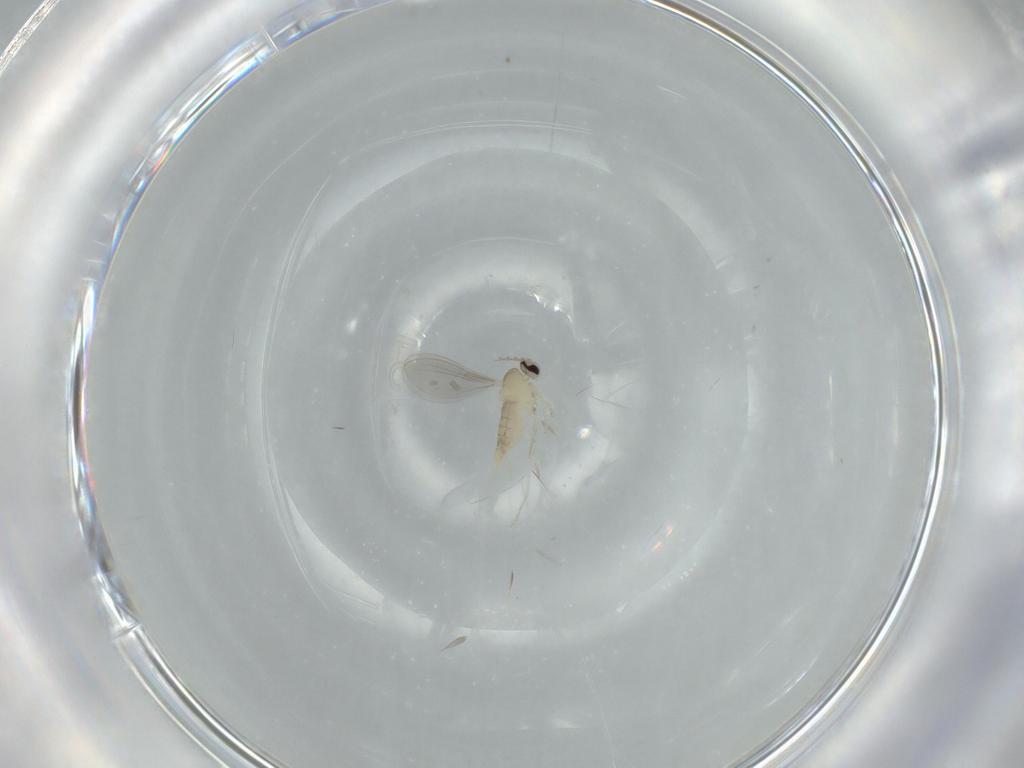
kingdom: Animalia
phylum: Arthropoda
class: Insecta
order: Diptera
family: Cecidomyiidae
